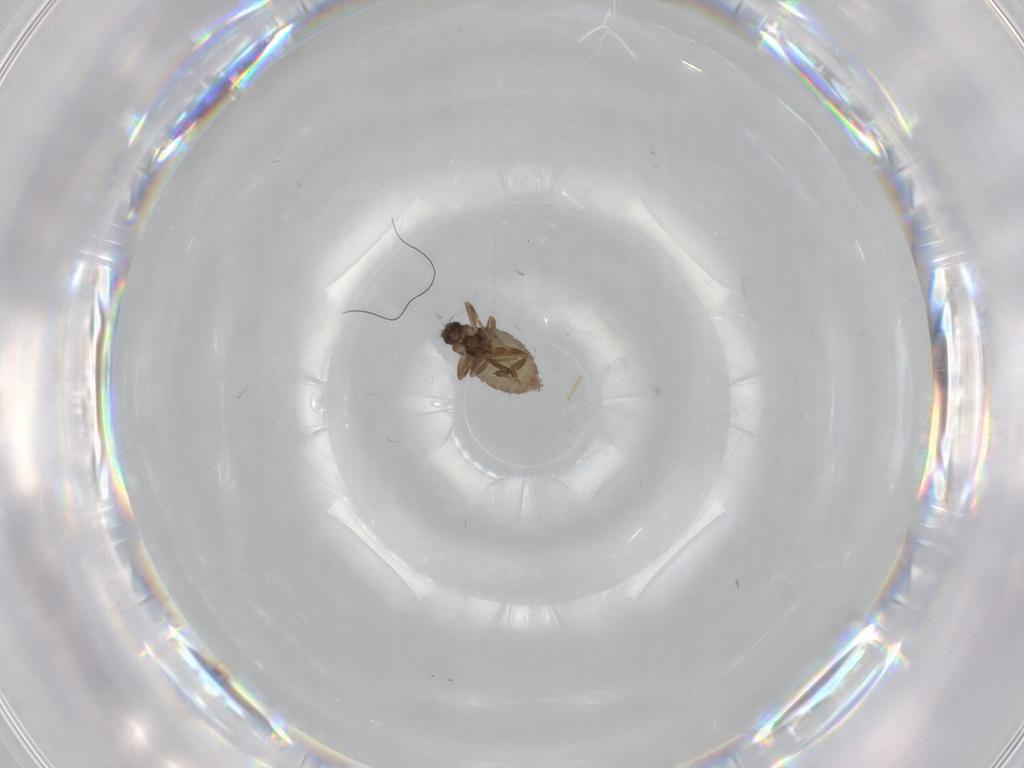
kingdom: Animalia
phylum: Arthropoda
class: Insecta
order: Diptera
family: Phoridae
